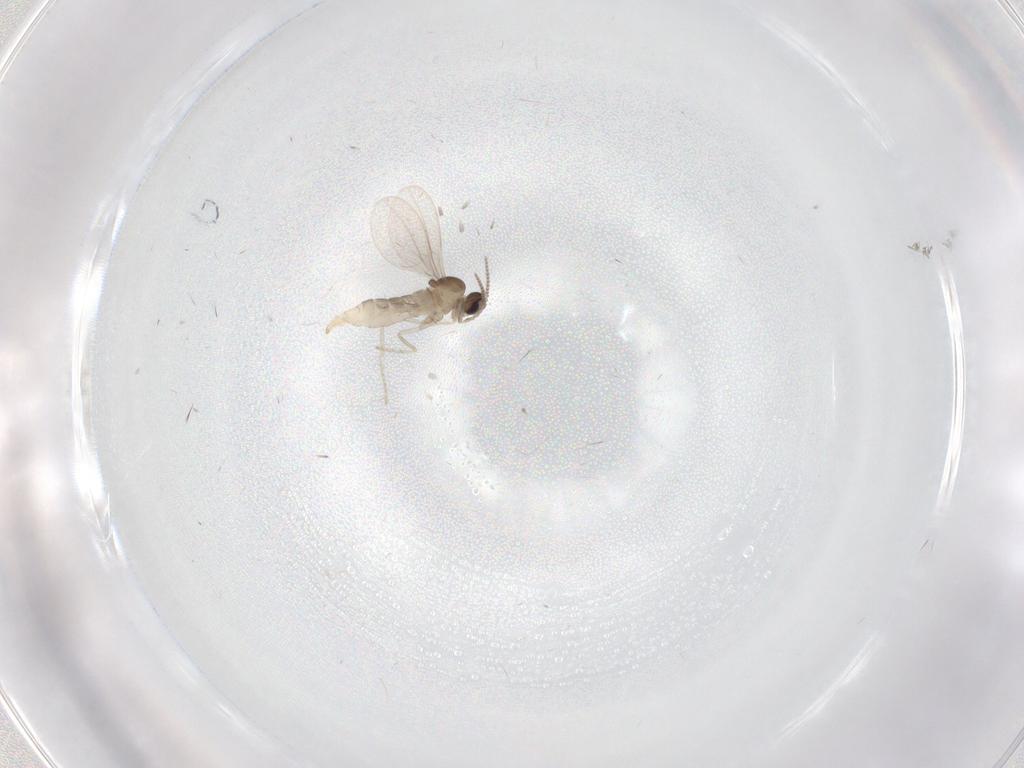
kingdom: Animalia
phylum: Arthropoda
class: Insecta
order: Diptera
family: Cecidomyiidae
